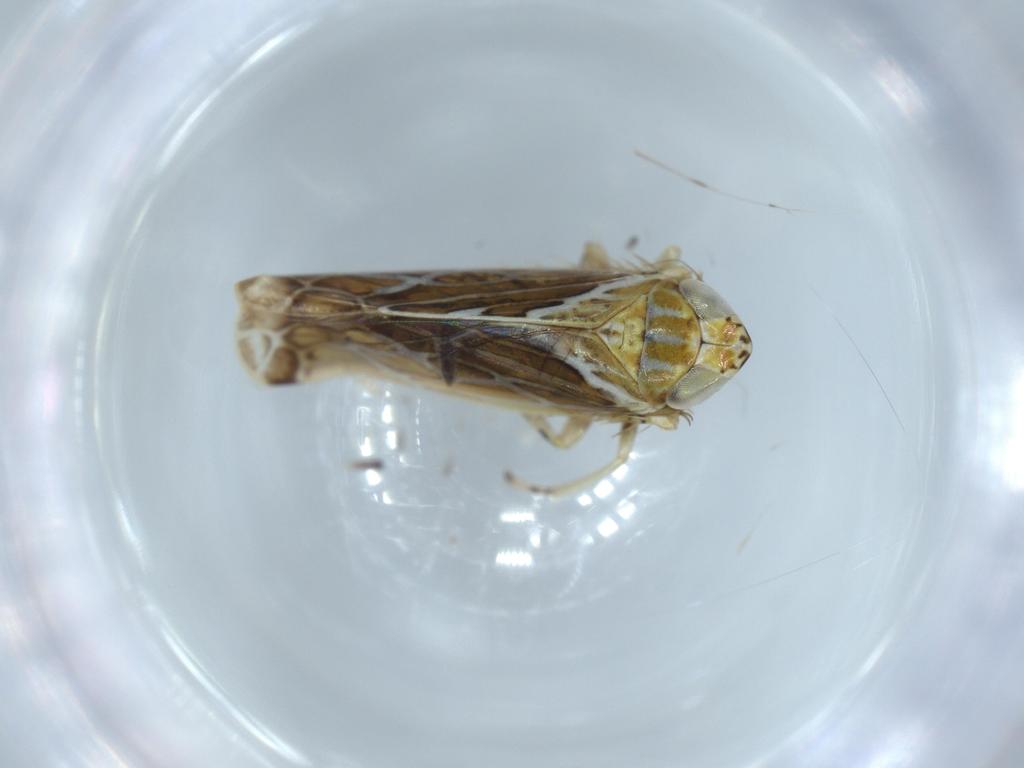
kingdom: Animalia
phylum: Arthropoda
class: Insecta
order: Hemiptera
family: Cicadellidae
